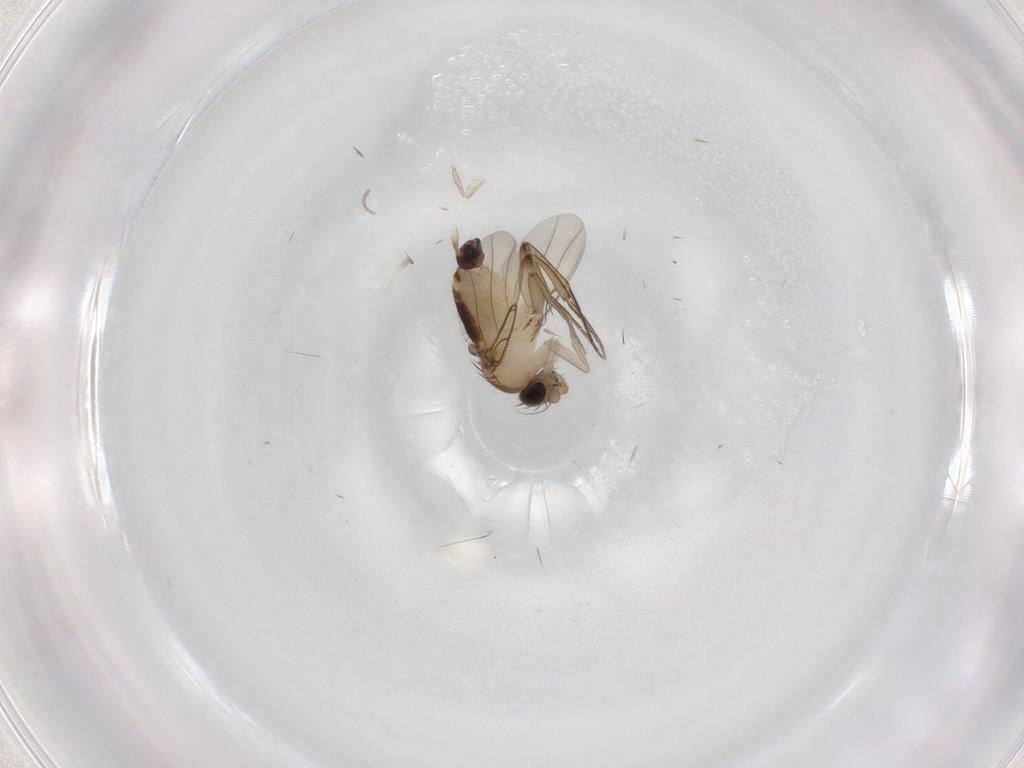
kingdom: Animalia
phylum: Arthropoda
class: Insecta
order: Diptera
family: Phoridae
